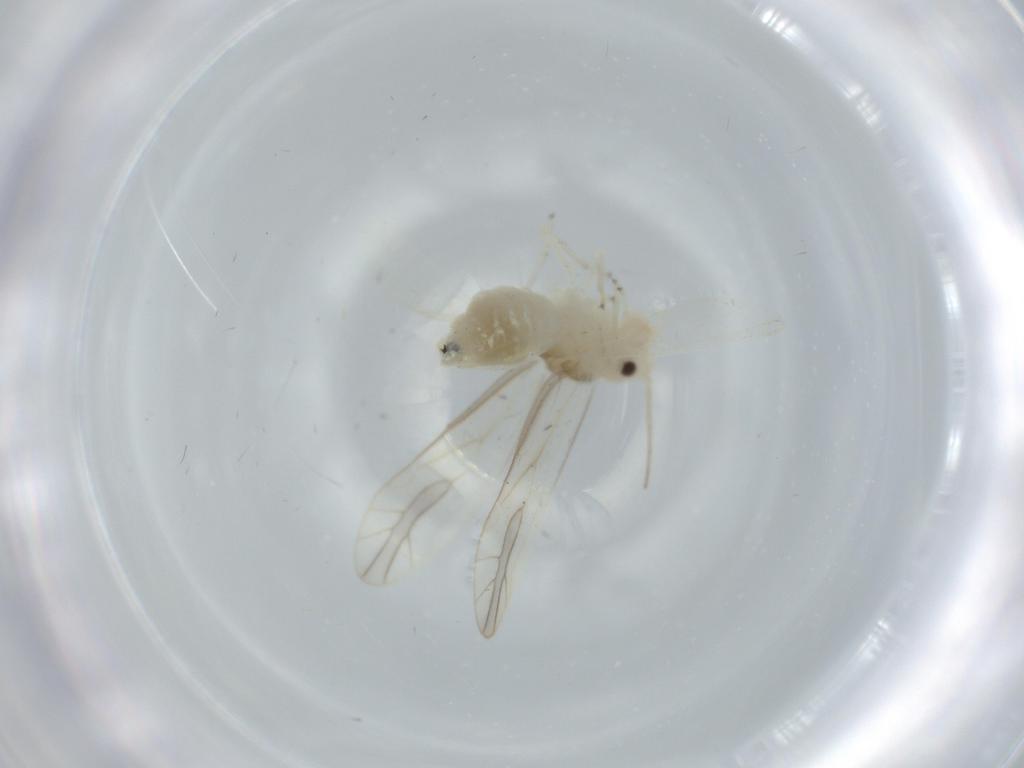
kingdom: Animalia
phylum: Arthropoda
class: Insecta
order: Psocodea
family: Caeciliusidae
